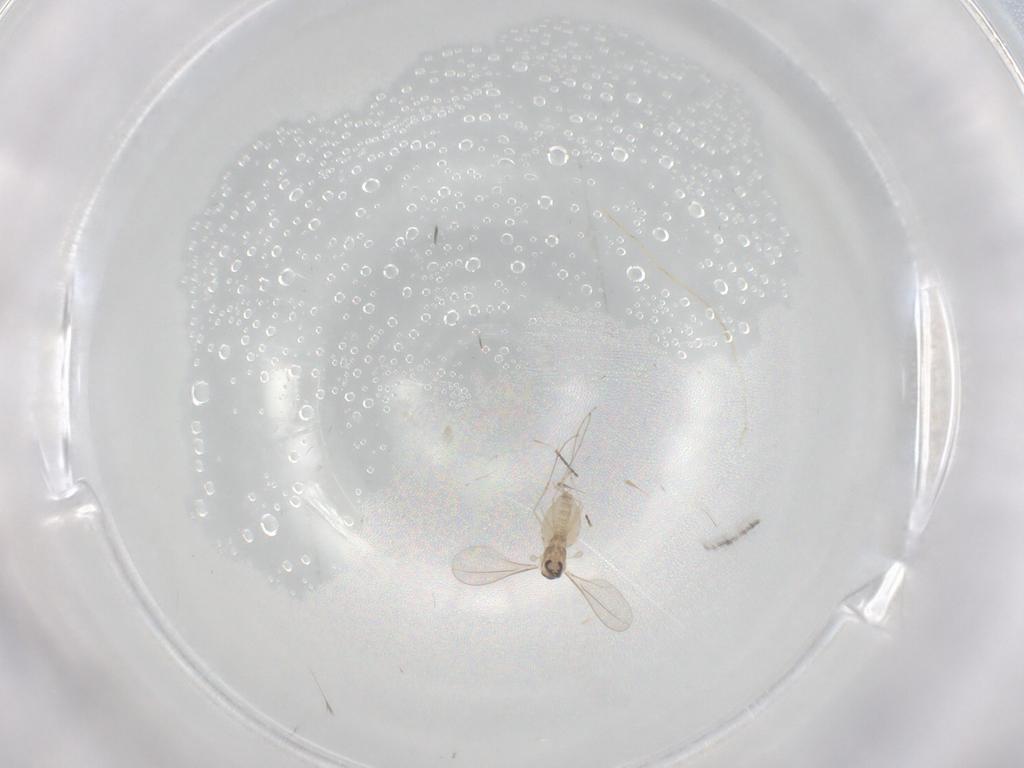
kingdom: Animalia
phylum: Arthropoda
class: Insecta
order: Diptera
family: Cecidomyiidae
